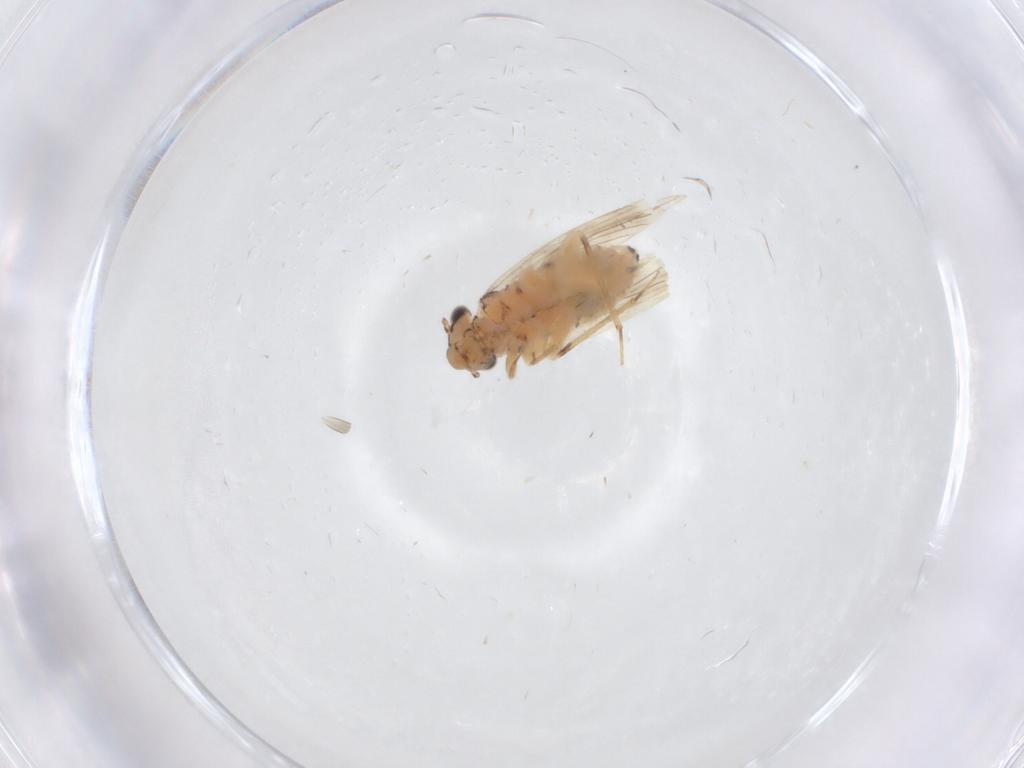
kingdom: Animalia
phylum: Arthropoda
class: Insecta
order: Psocodea
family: Lepidopsocidae
